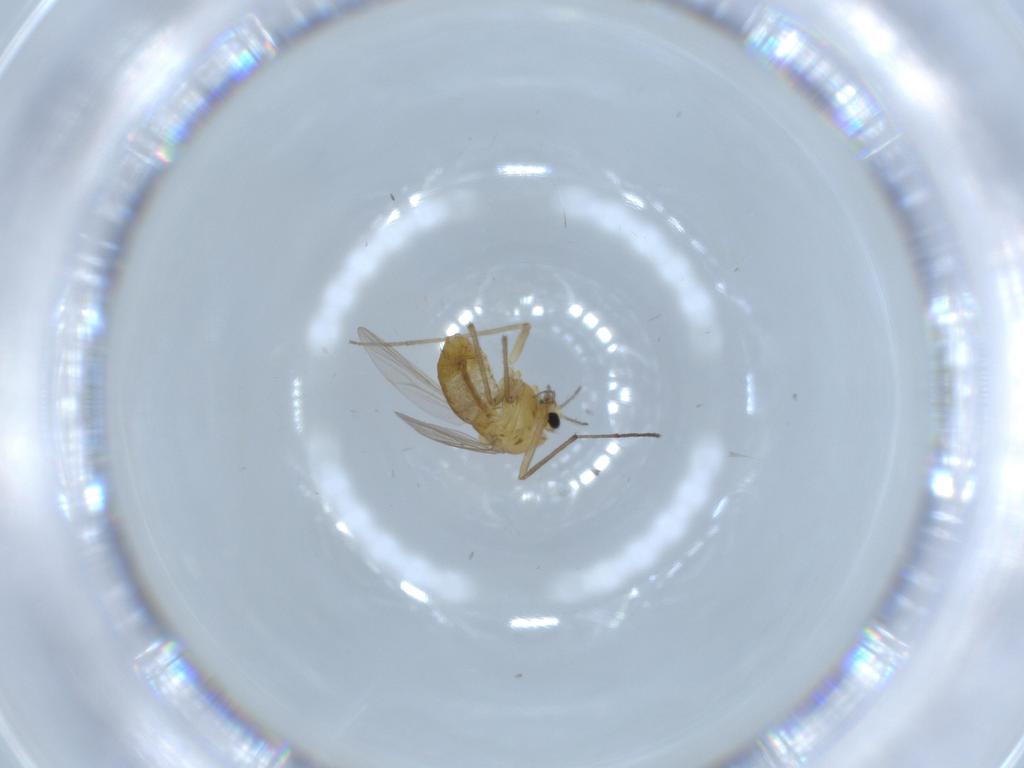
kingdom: Animalia
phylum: Arthropoda
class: Insecta
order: Diptera
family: Chironomidae
